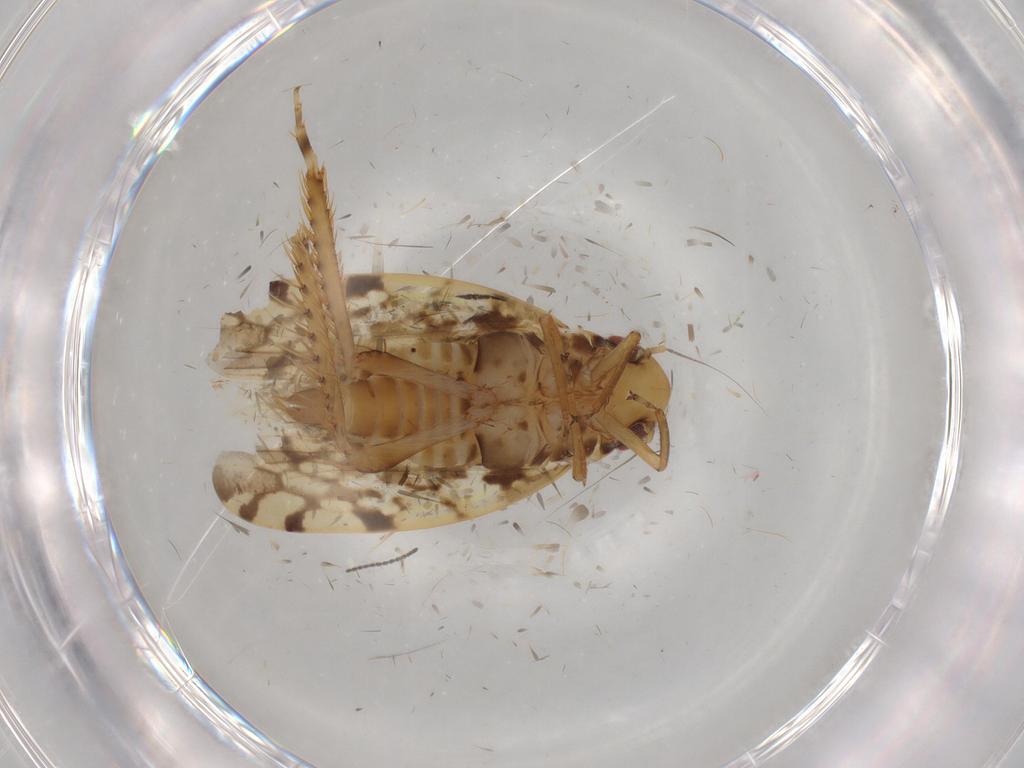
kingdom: Animalia
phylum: Arthropoda
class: Insecta
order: Hemiptera
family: Cicadellidae
